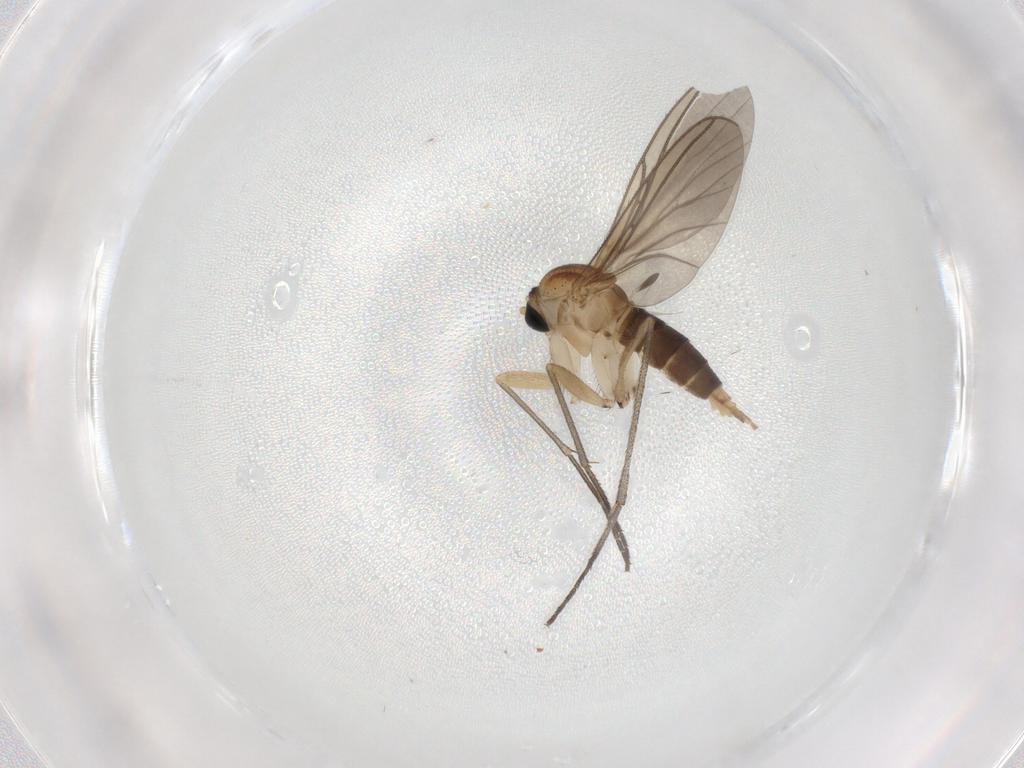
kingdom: Animalia
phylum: Arthropoda
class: Insecta
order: Diptera
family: Sciaridae
